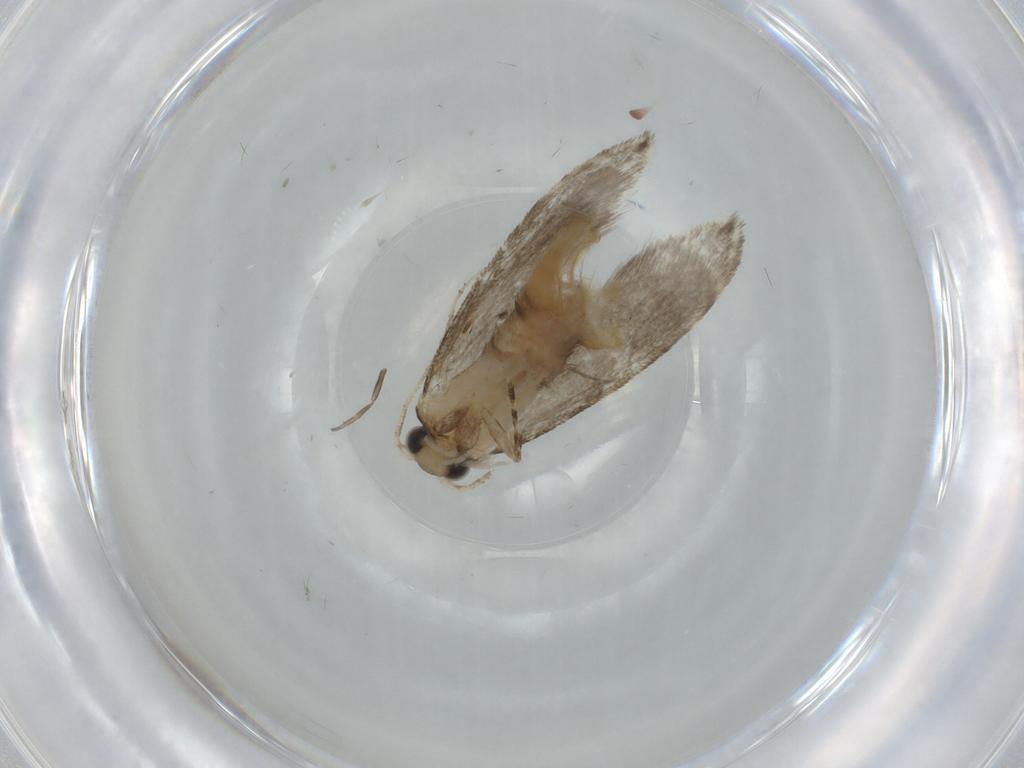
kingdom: Animalia
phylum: Arthropoda
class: Insecta
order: Lepidoptera
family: Tineidae
